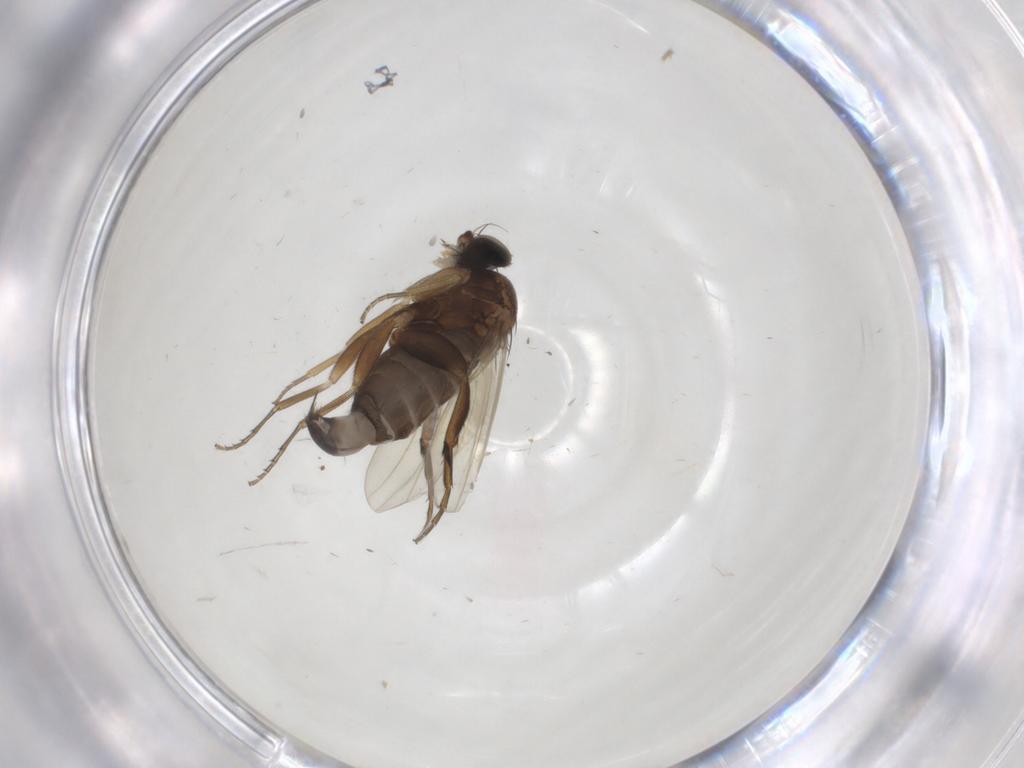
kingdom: Animalia
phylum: Arthropoda
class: Insecta
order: Diptera
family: Phoridae
